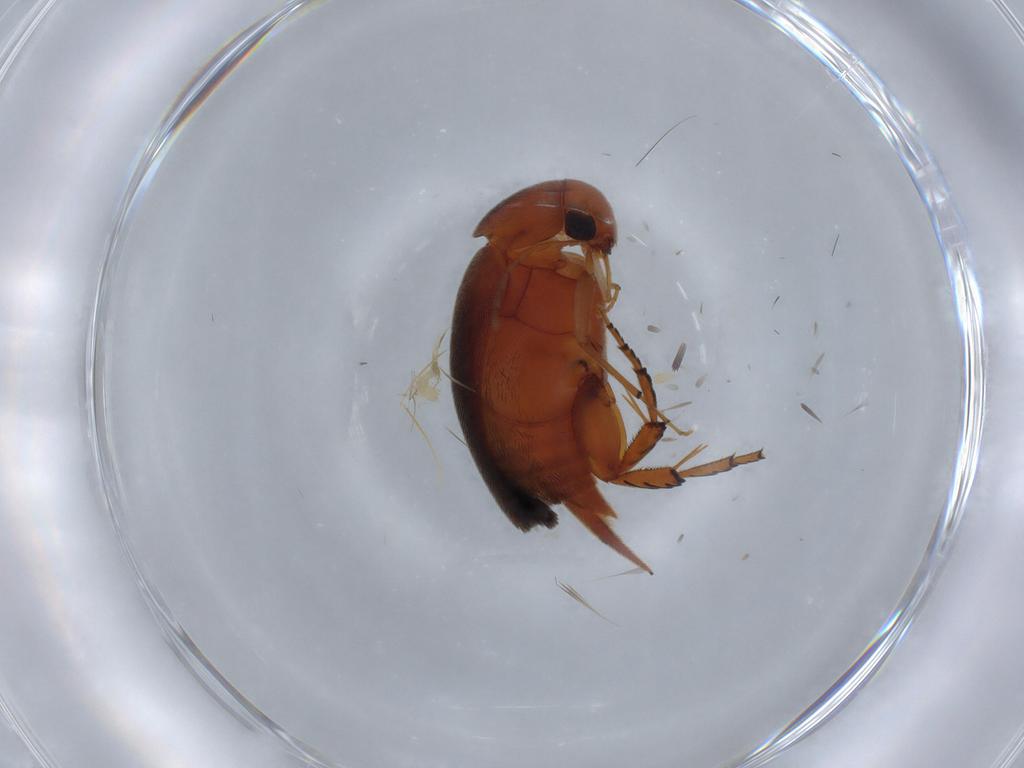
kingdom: Animalia
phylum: Arthropoda
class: Insecta
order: Coleoptera
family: Mordellidae
